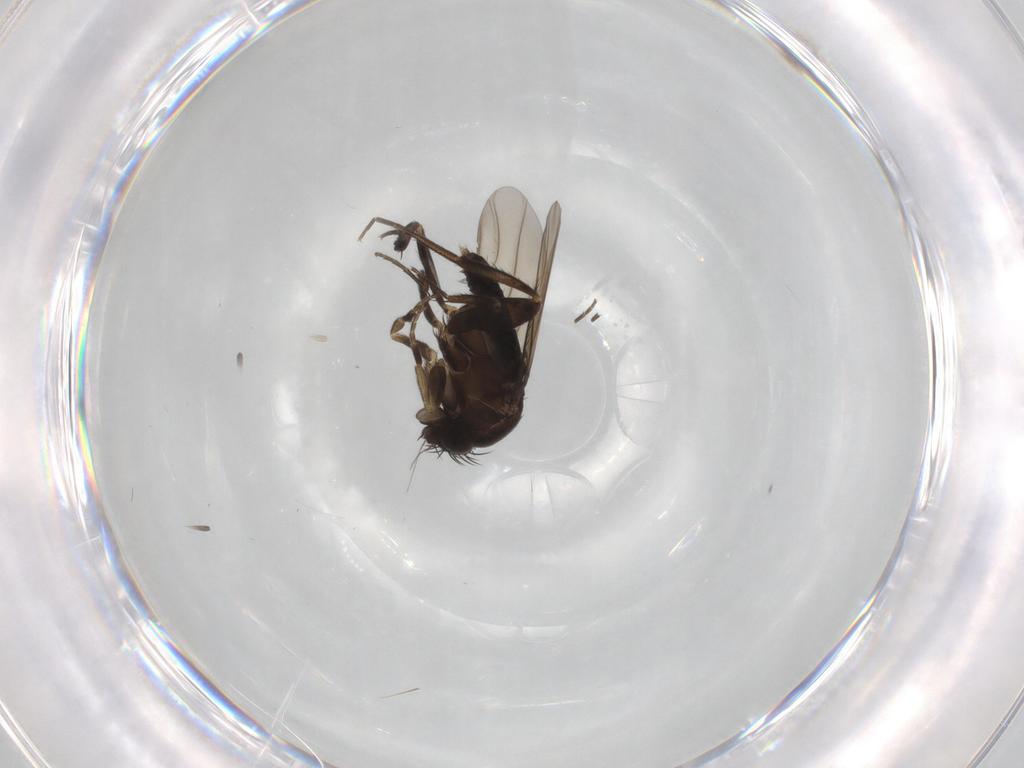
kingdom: Animalia
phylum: Arthropoda
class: Insecta
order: Diptera
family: Phoridae
